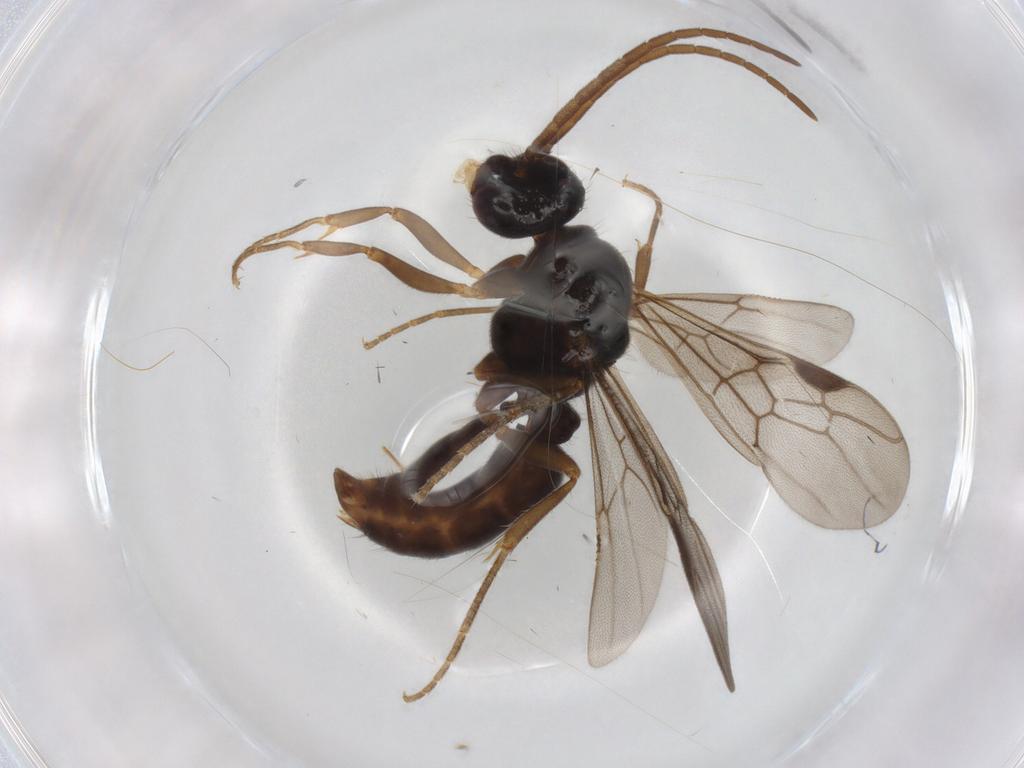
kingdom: Animalia
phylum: Arthropoda
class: Insecta
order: Hymenoptera
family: Formicidae
